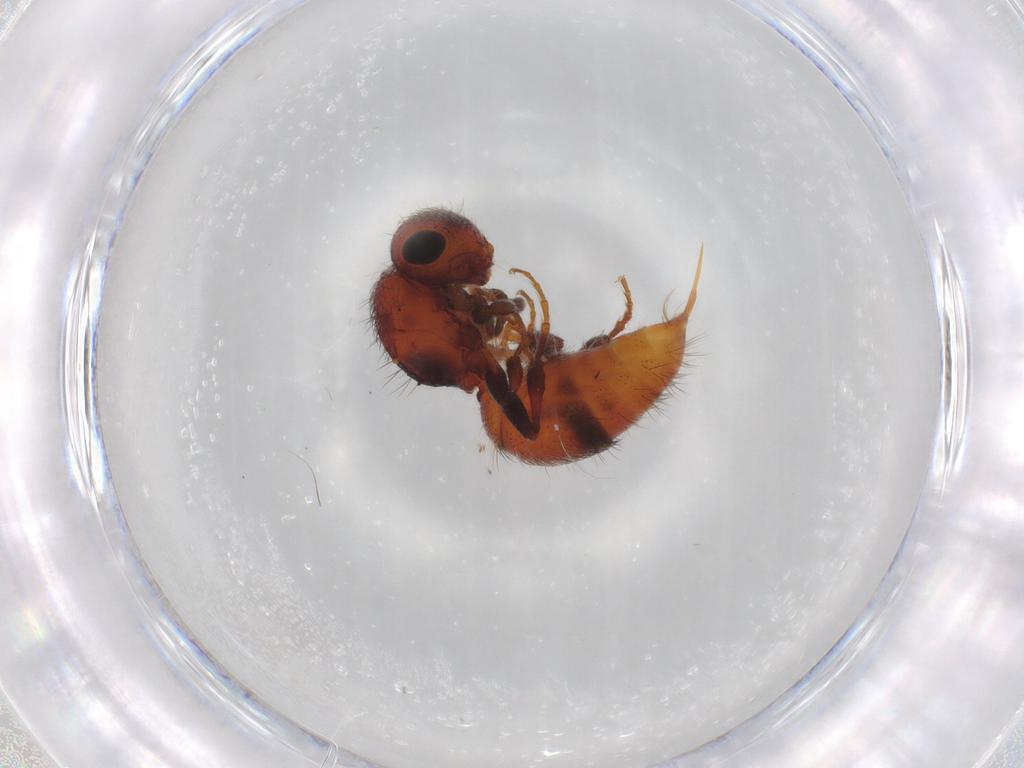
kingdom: Animalia
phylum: Arthropoda
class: Insecta
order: Hymenoptera
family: Mutillidae
